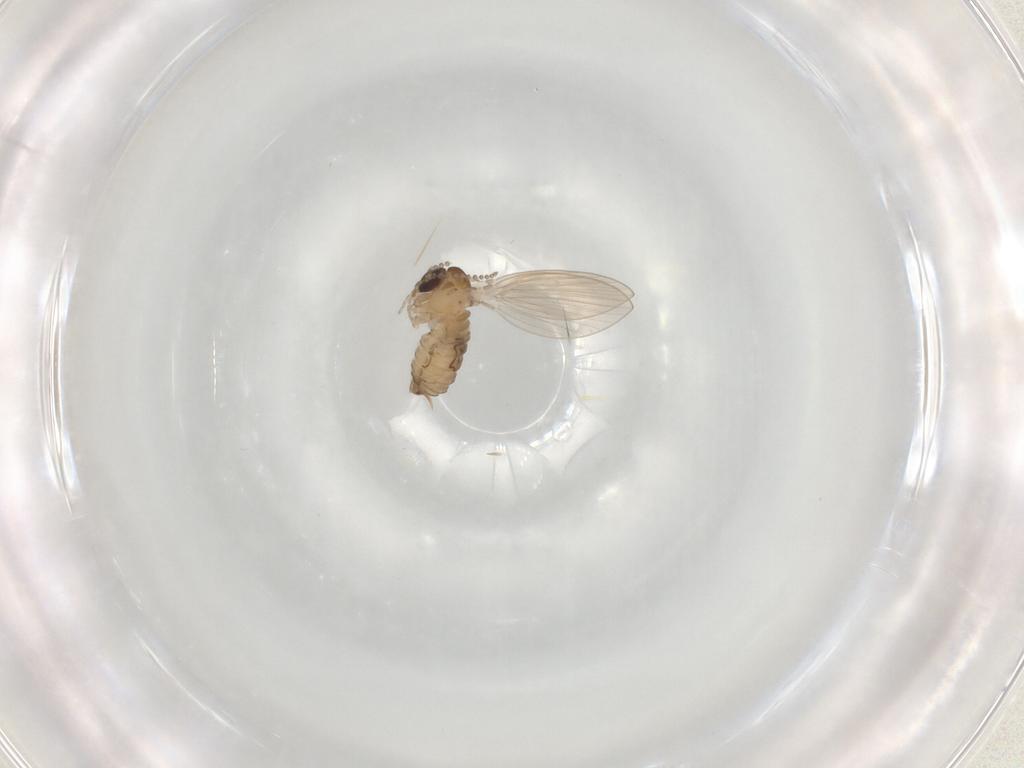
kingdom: Animalia
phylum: Arthropoda
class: Insecta
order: Diptera
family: Psychodidae
